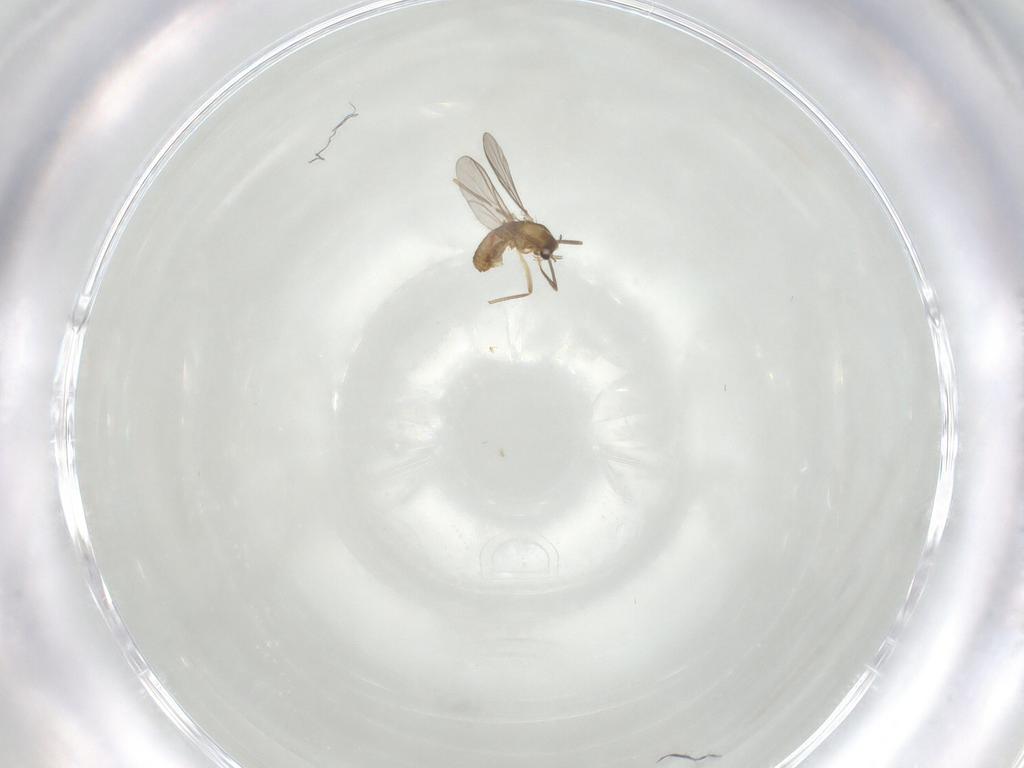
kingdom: Animalia
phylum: Arthropoda
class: Insecta
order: Diptera
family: Chironomidae
